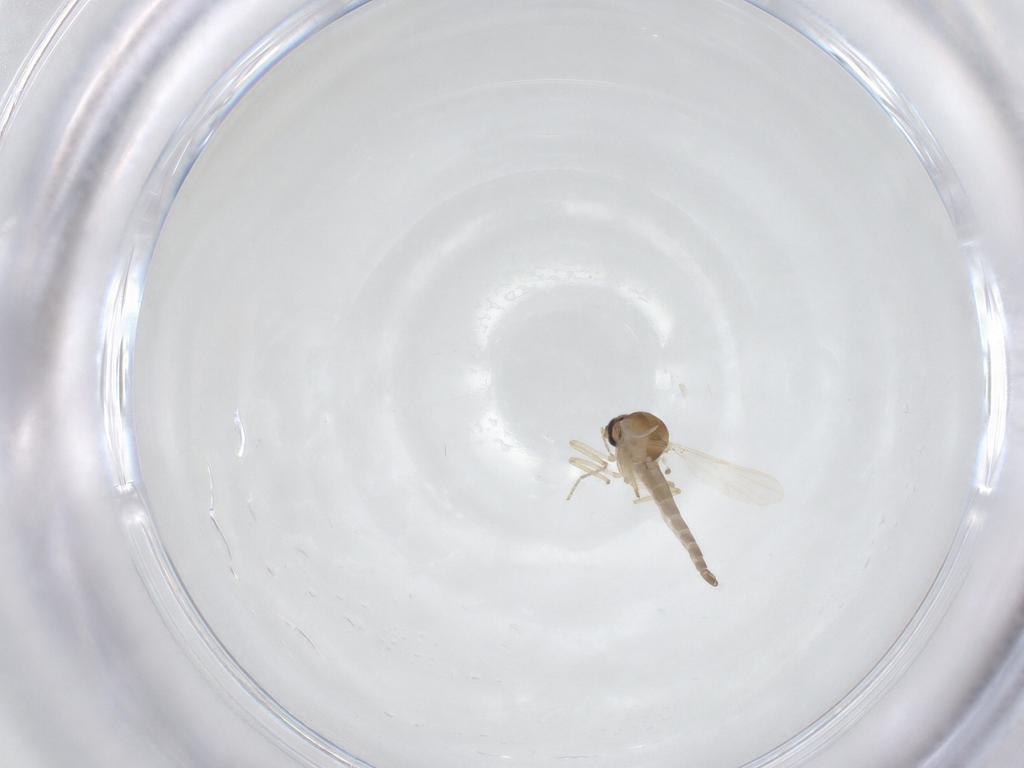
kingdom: Animalia
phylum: Arthropoda
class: Insecta
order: Diptera
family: Ceratopogonidae
